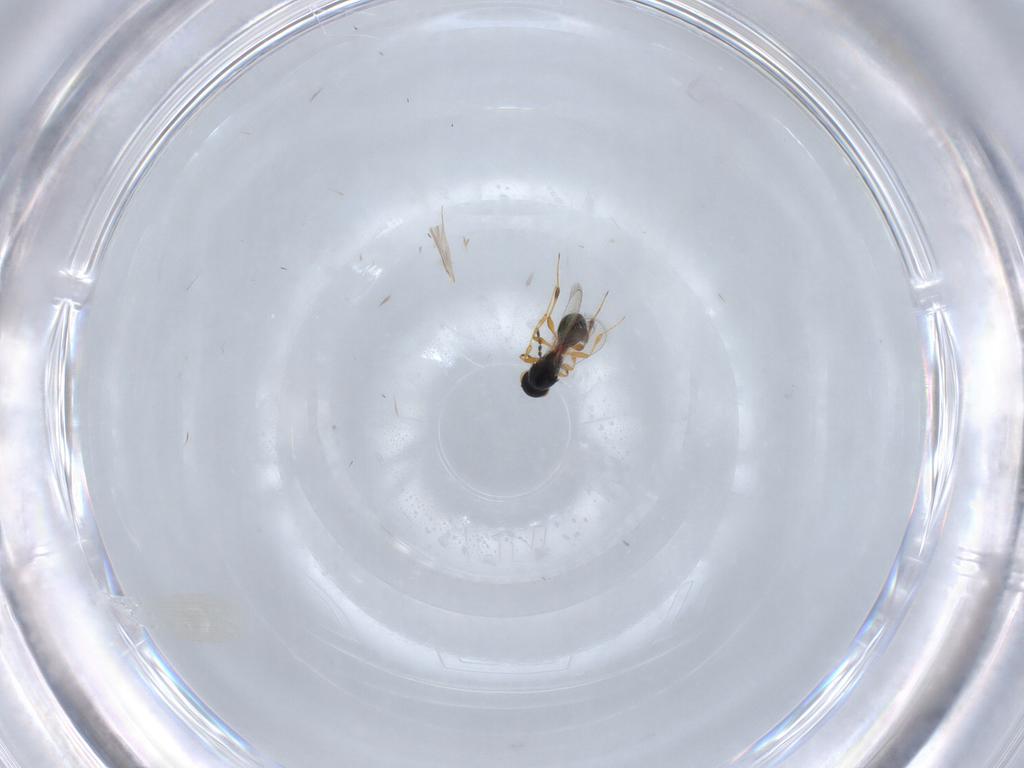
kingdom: Animalia
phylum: Arthropoda
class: Insecta
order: Hymenoptera
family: Platygastridae
